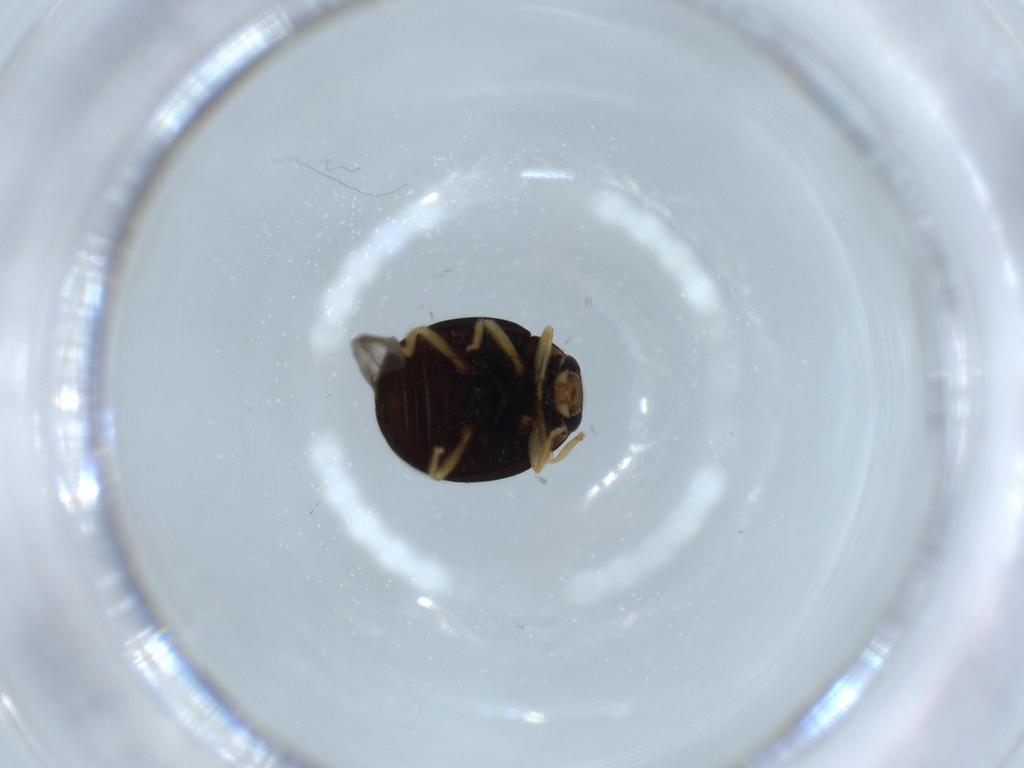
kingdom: Animalia
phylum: Arthropoda
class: Insecta
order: Coleoptera
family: Coccinellidae
